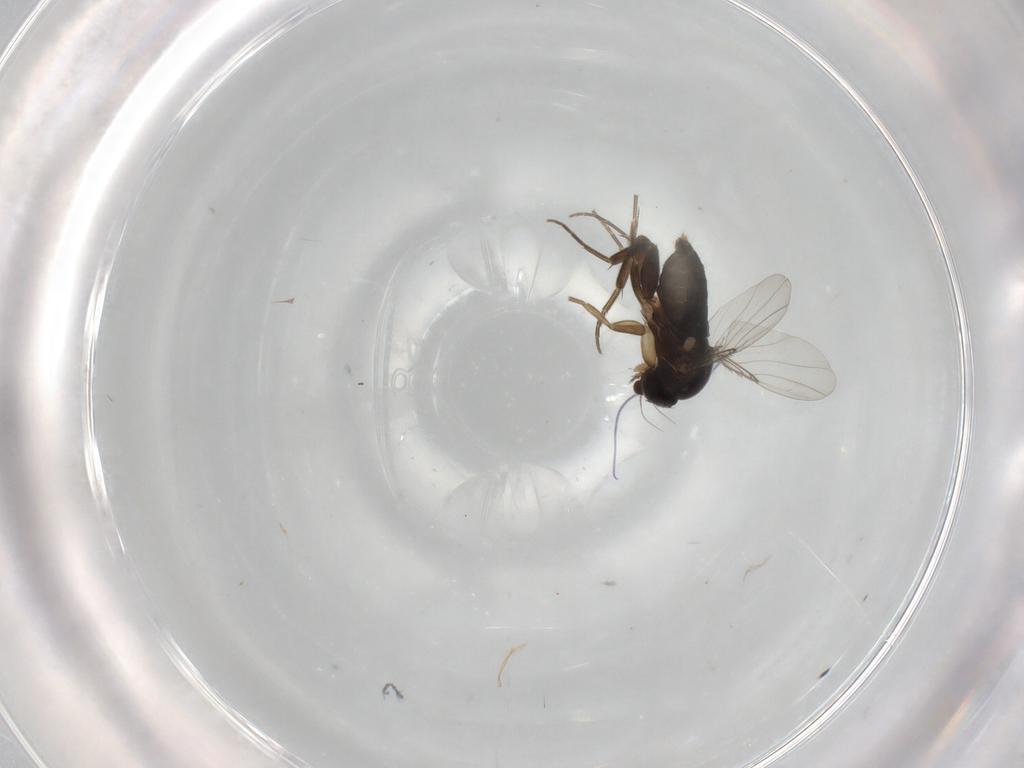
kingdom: Animalia
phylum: Arthropoda
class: Insecta
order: Diptera
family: Phoridae
